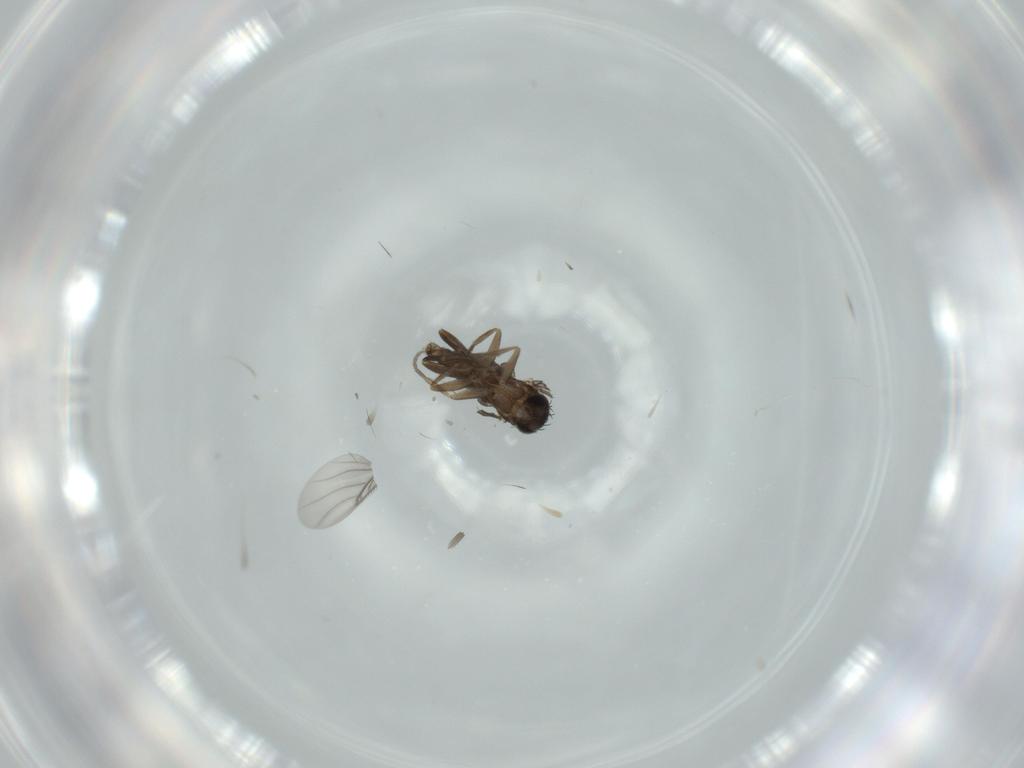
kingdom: Animalia
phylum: Arthropoda
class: Insecta
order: Diptera
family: Phoridae
